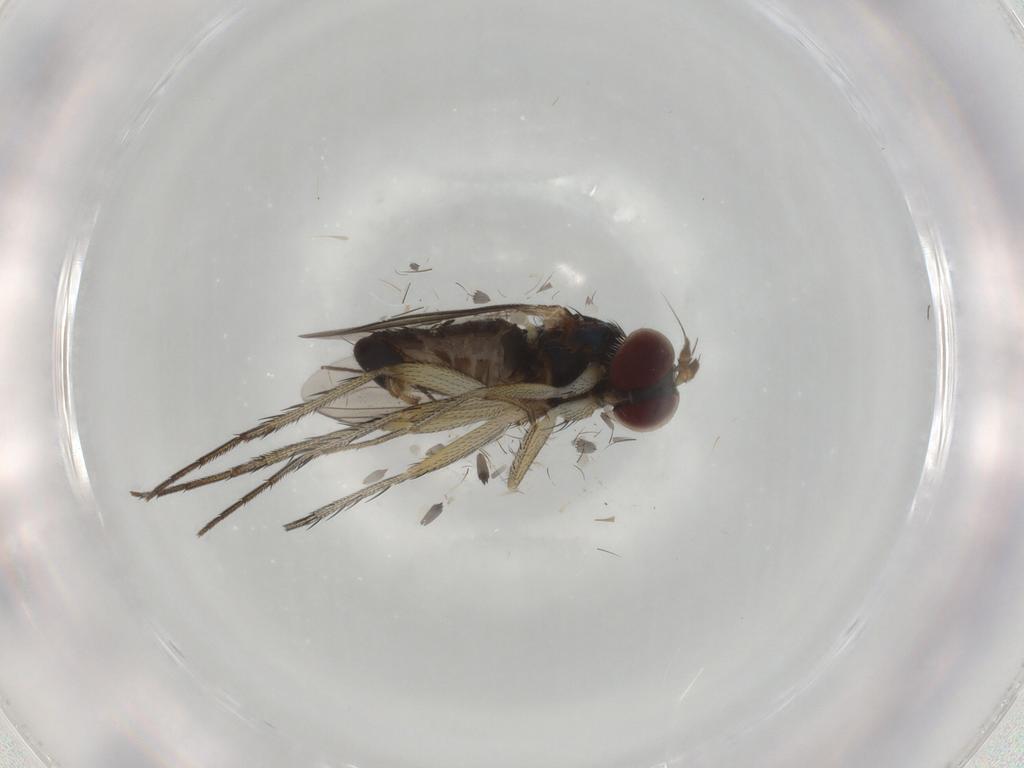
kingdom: Animalia
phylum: Arthropoda
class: Insecta
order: Diptera
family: Dolichopodidae
